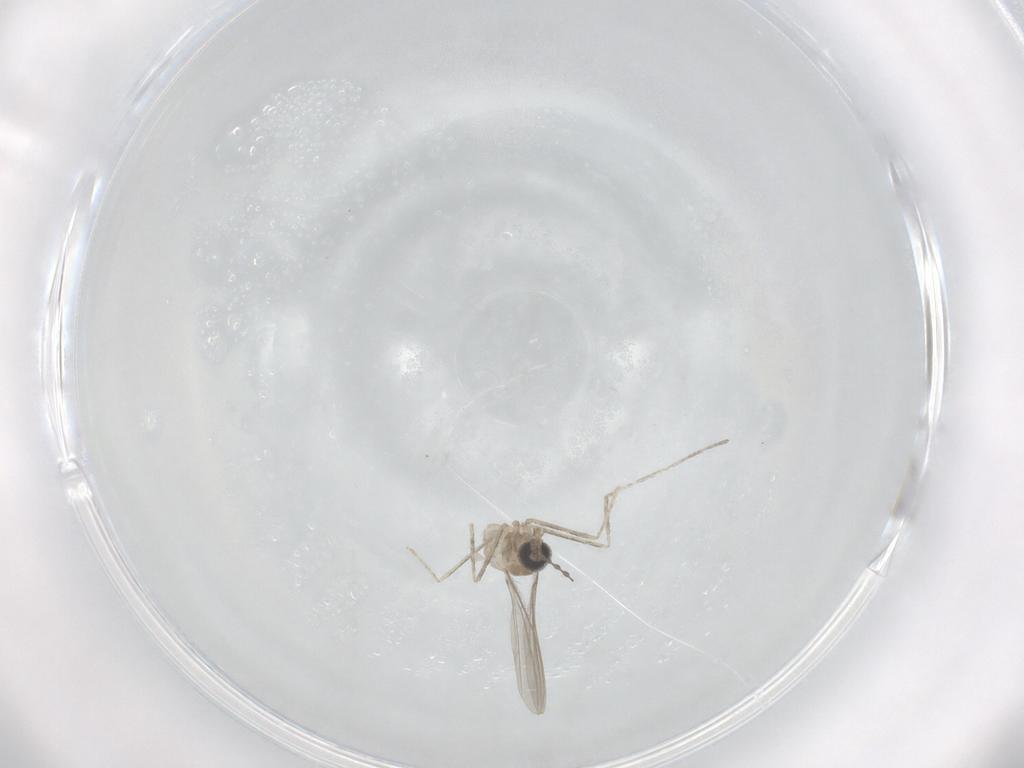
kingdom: Animalia
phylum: Arthropoda
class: Insecta
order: Diptera
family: Cecidomyiidae
